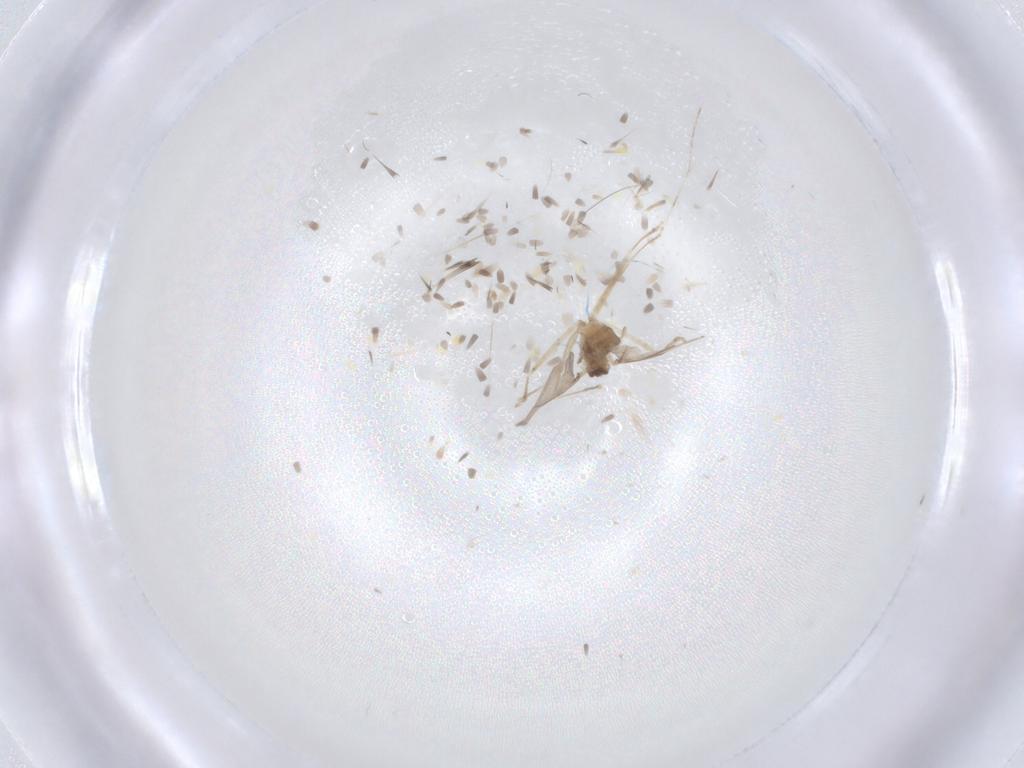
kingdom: Animalia
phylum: Arthropoda
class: Insecta
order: Diptera
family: Cecidomyiidae
